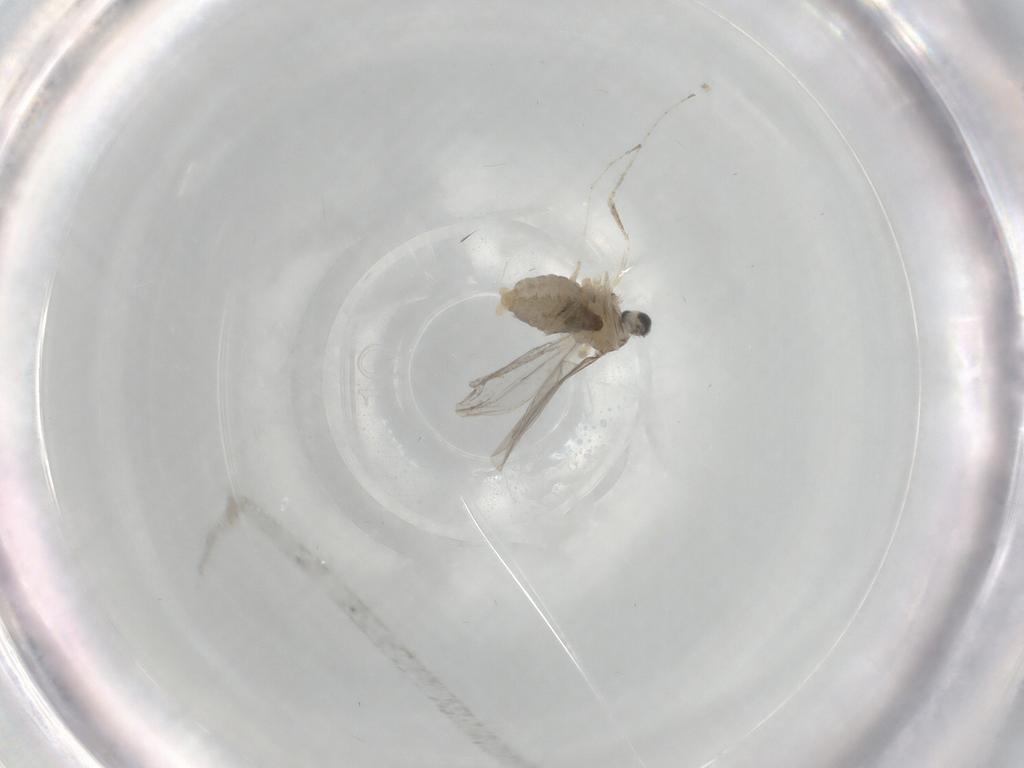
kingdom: Animalia
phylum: Arthropoda
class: Insecta
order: Diptera
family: Cecidomyiidae
